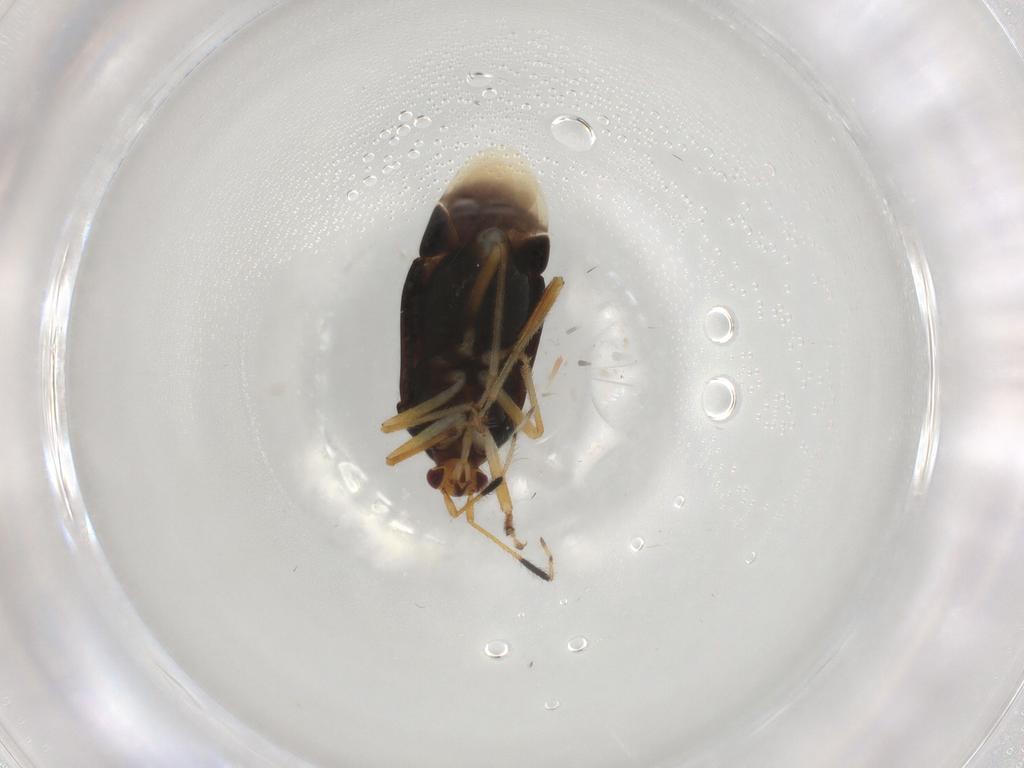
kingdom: Animalia
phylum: Arthropoda
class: Insecta
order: Hemiptera
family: Miridae
